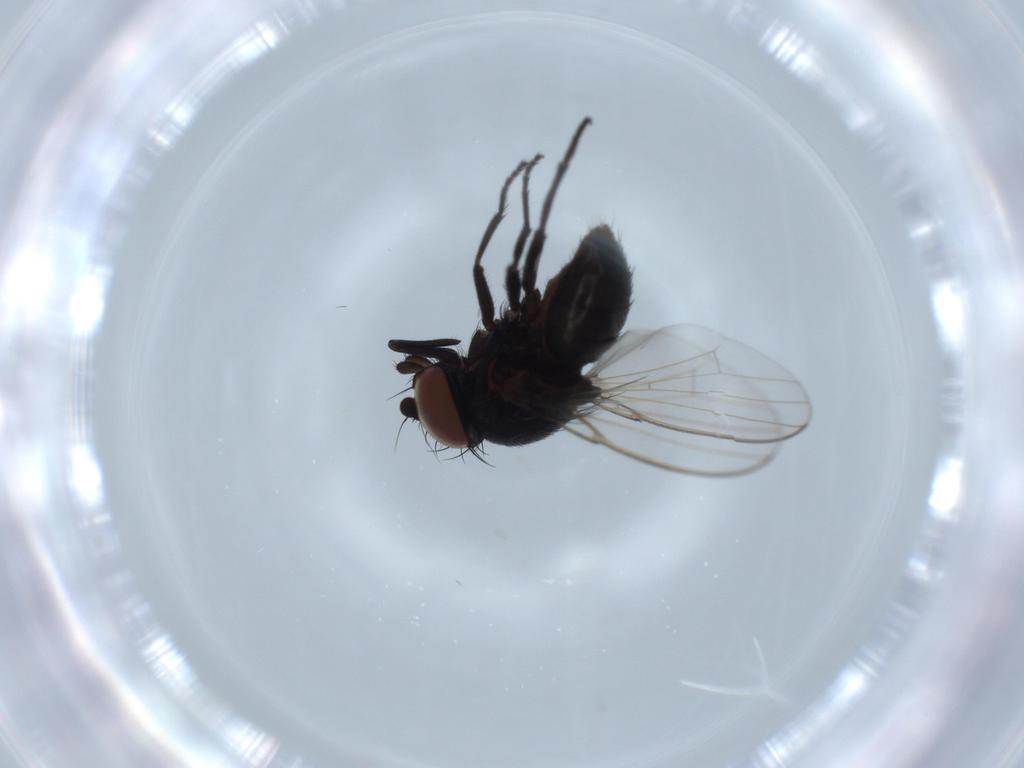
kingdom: Animalia
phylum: Arthropoda
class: Insecta
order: Diptera
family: Milichiidae
